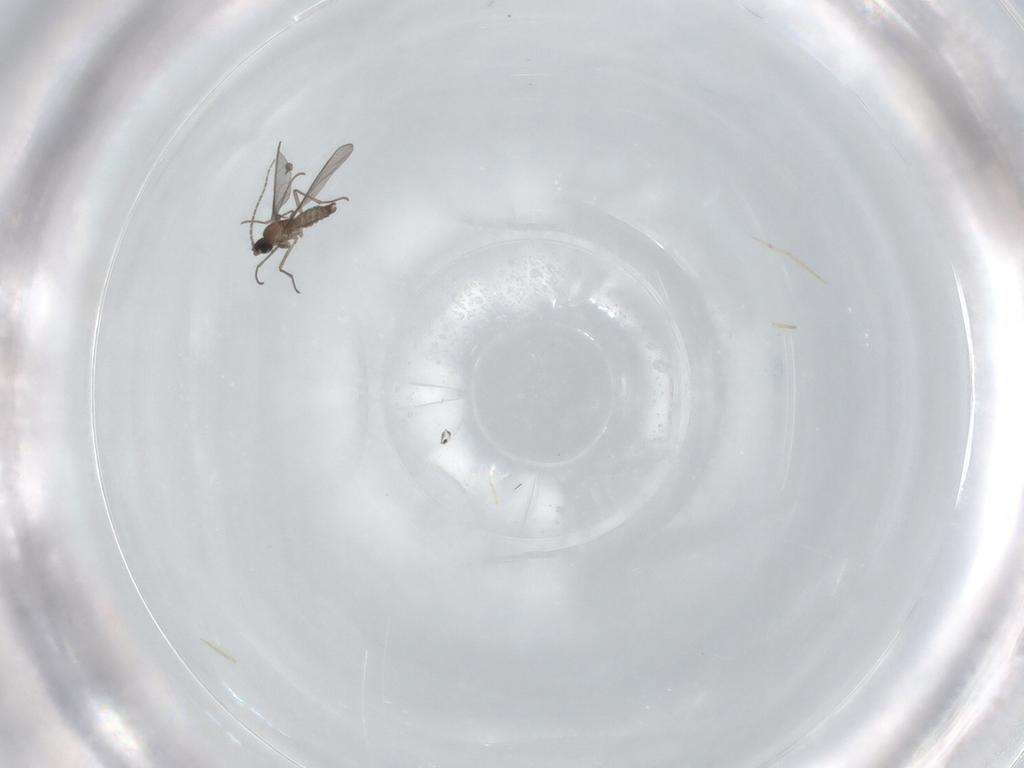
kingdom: Animalia
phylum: Arthropoda
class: Insecta
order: Diptera
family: Sciaridae
